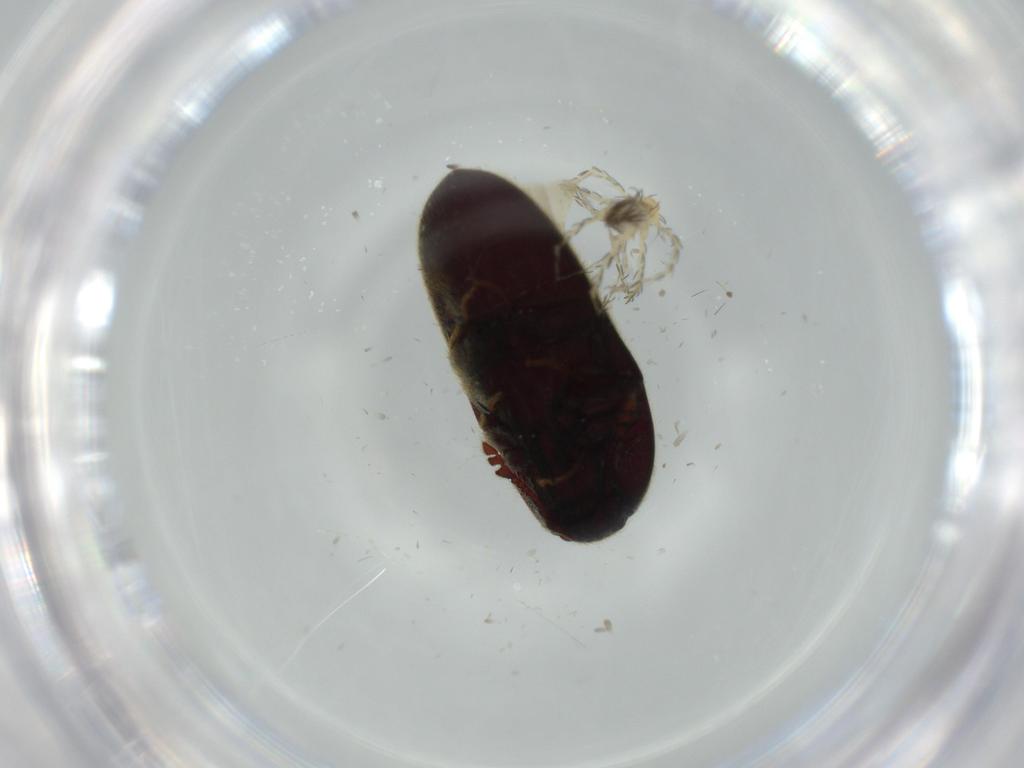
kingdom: Animalia
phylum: Arthropoda
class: Insecta
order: Coleoptera
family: Throscidae
